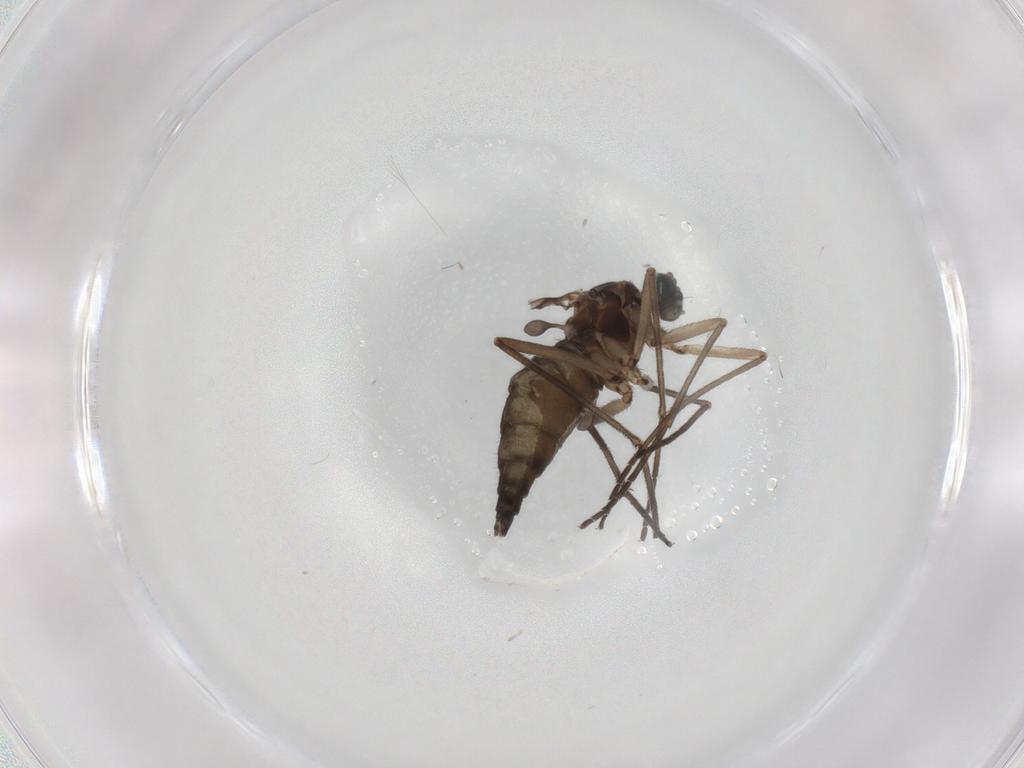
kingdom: Animalia
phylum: Arthropoda
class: Insecta
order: Diptera
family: Sciaridae
